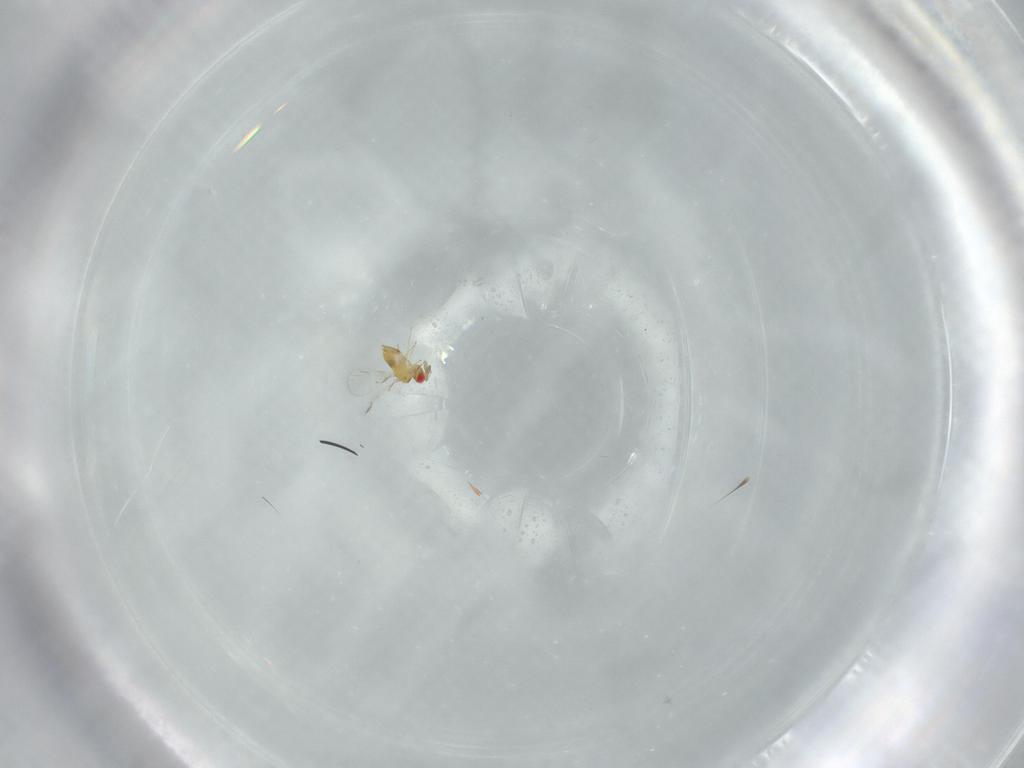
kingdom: Animalia
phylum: Arthropoda
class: Insecta
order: Hymenoptera
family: Trichogrammatidae
